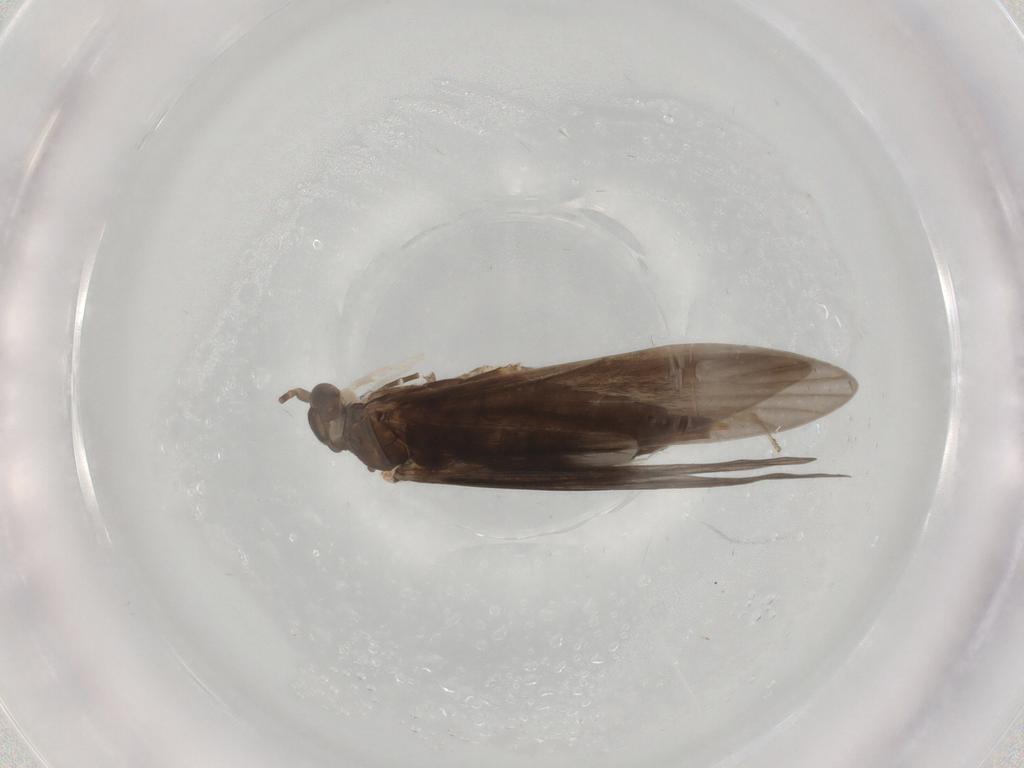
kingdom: Animalia
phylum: Arthropoda
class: Insecta
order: Trichoptera
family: Xiphocentronidae
